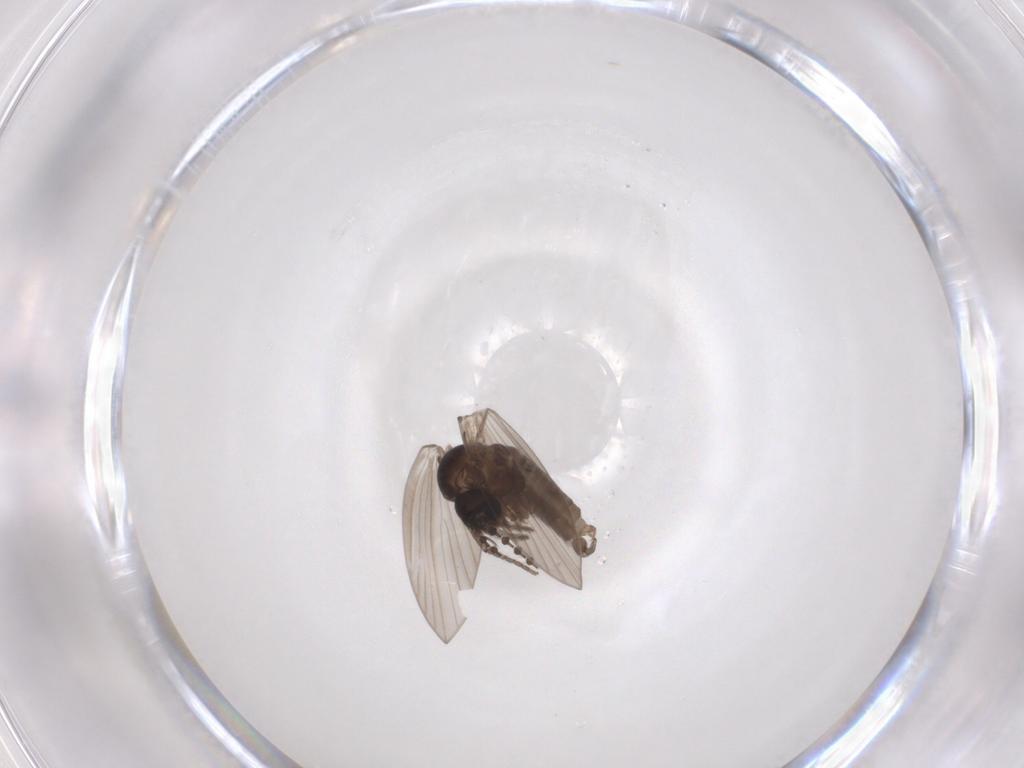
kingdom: Animalia
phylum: Arthropoda
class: Insecta
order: Diptera
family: Psychodidae
